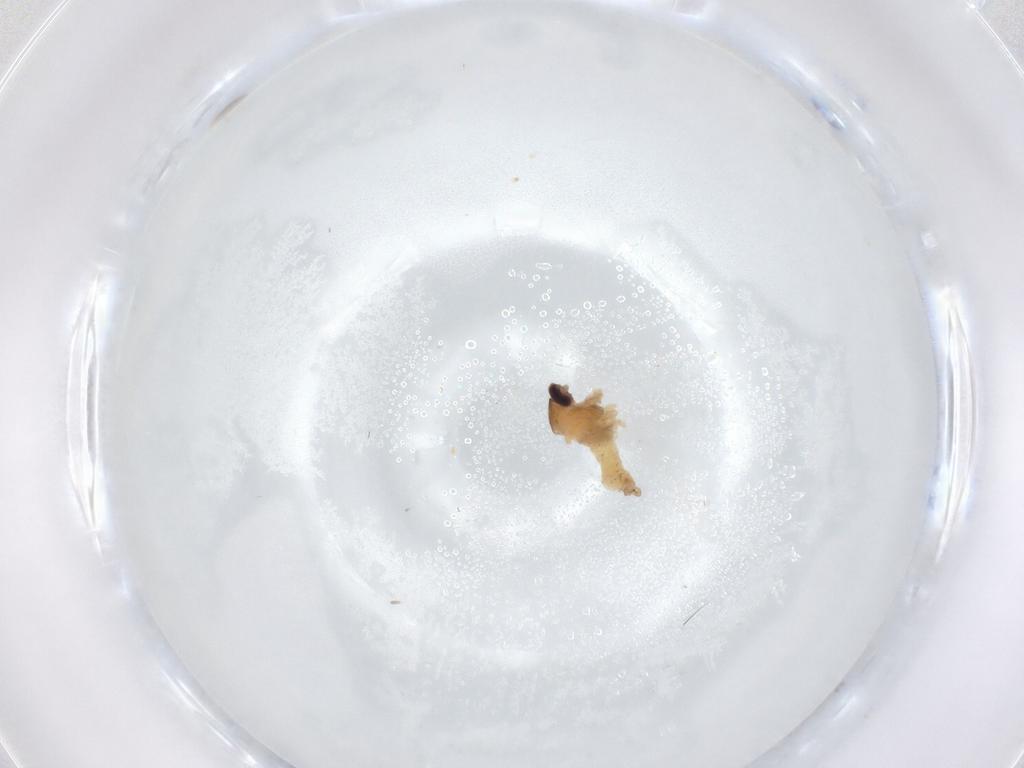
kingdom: Animalia
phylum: Arthropoda
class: Insecta
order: Diptera
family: Cecidomyiidae
